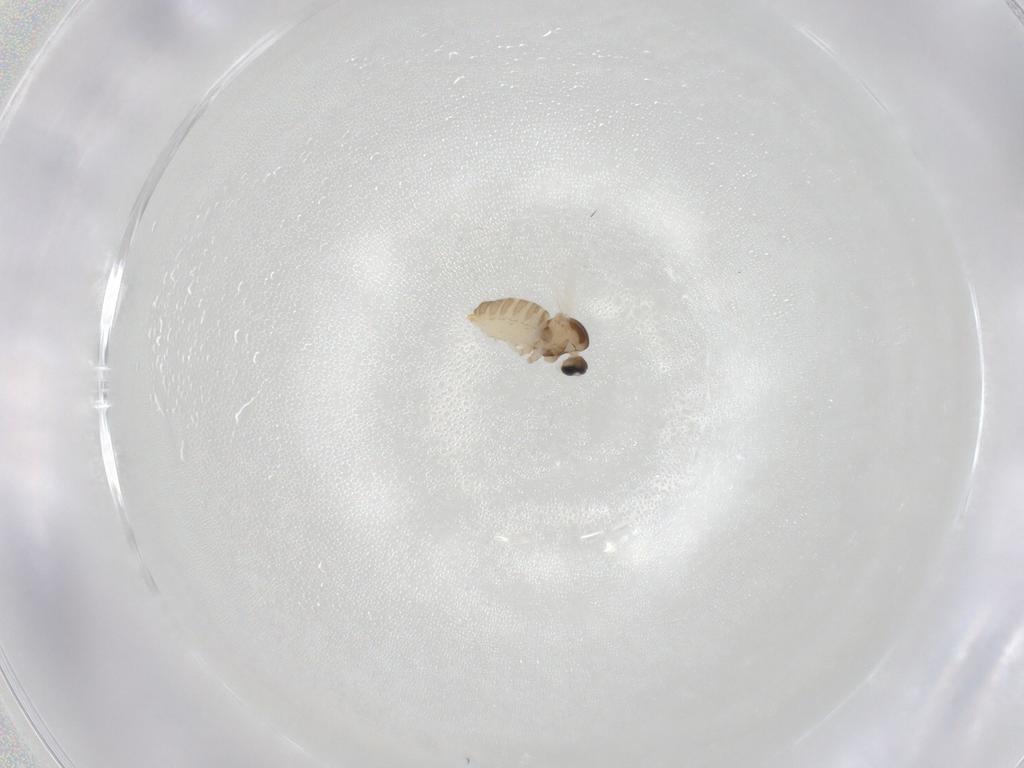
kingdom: Animalia
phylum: Arthropoda
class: Insecta
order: Diptera
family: Cecidomyiidae
